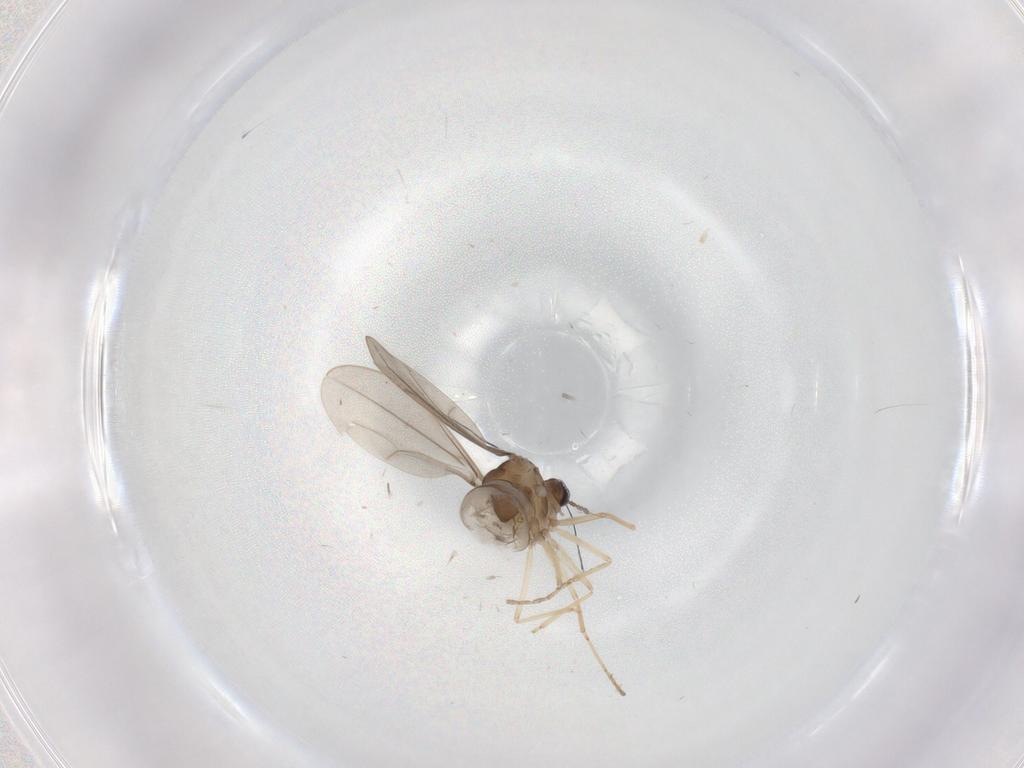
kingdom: Animalia
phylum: Arthropoda
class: Insecta
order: Diptera
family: Cecidomyiidae
